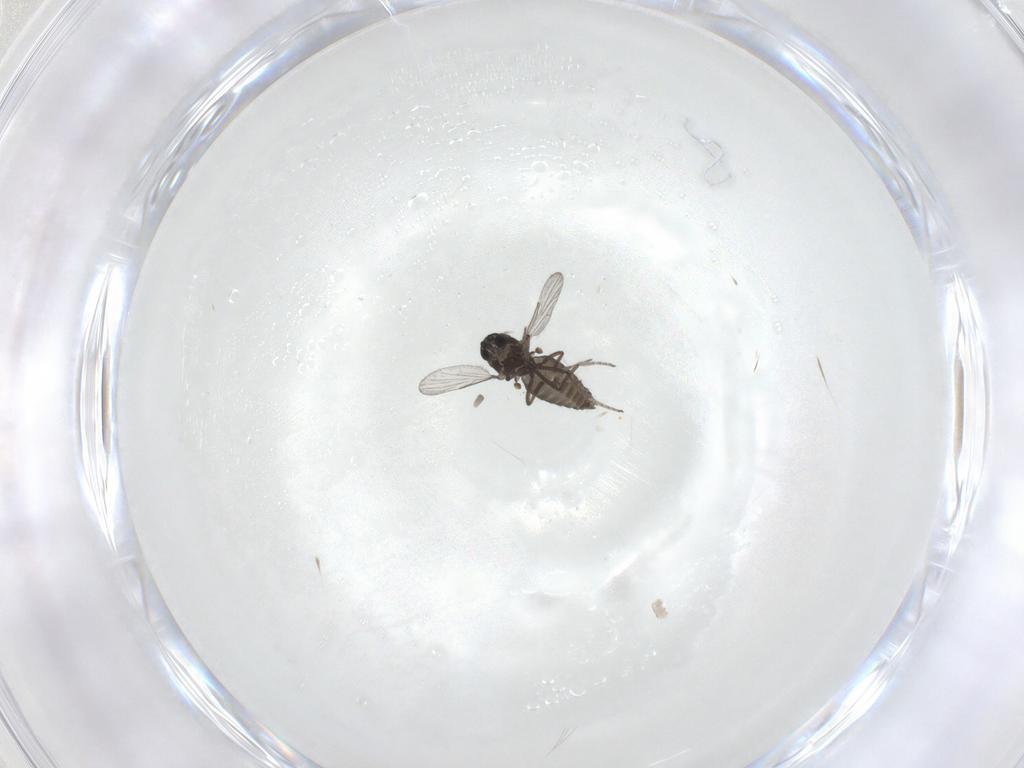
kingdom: Animalia
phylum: Arthropoda
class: Insecta
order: Diptera
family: Ceratopogonidae
